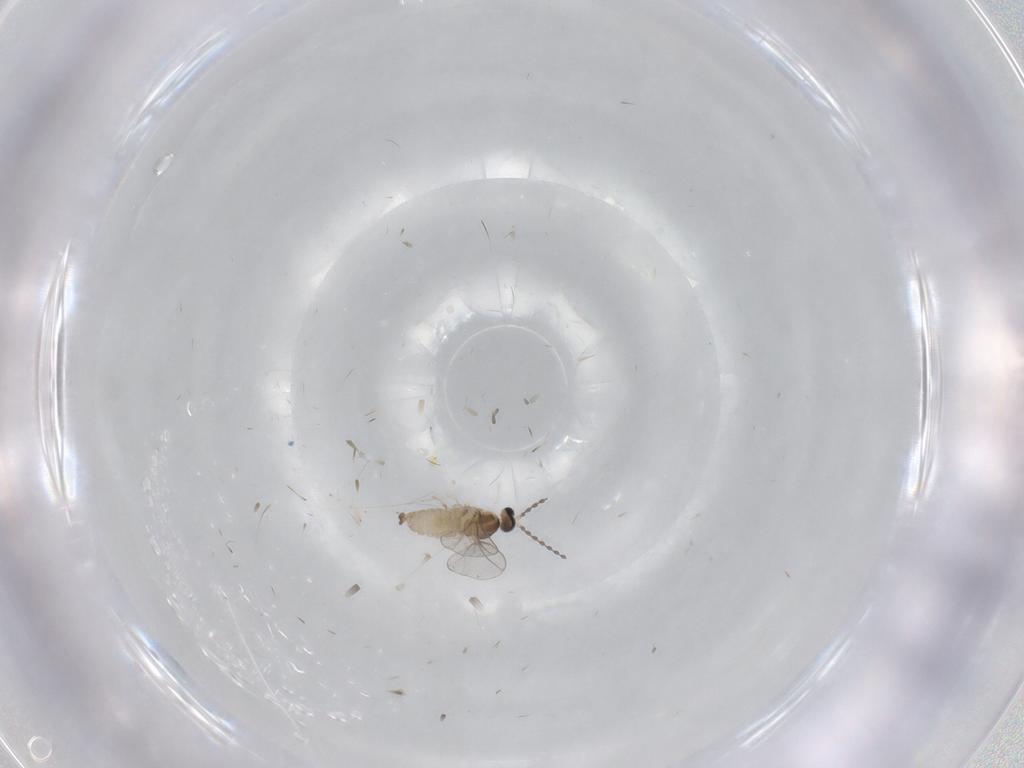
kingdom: Animalia
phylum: Arthropoda
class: Insecta
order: Diptera
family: Cecidomyiidae
